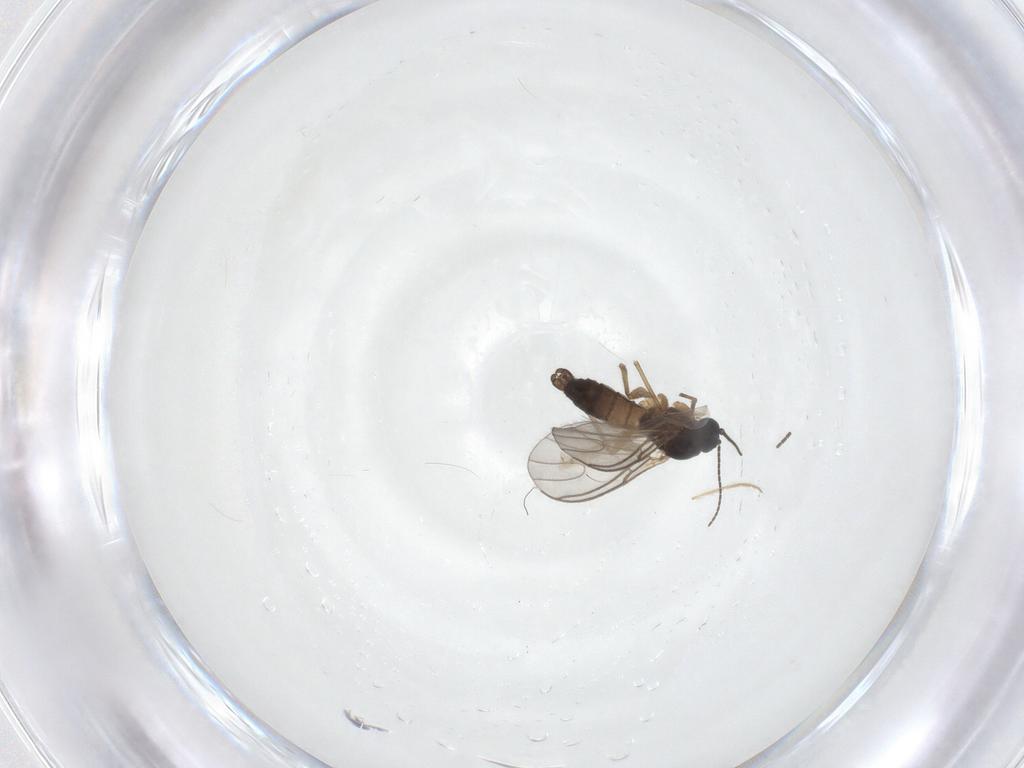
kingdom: Animalia
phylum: Arthropoda
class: Insecta
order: Diptera
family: Sciaridae
